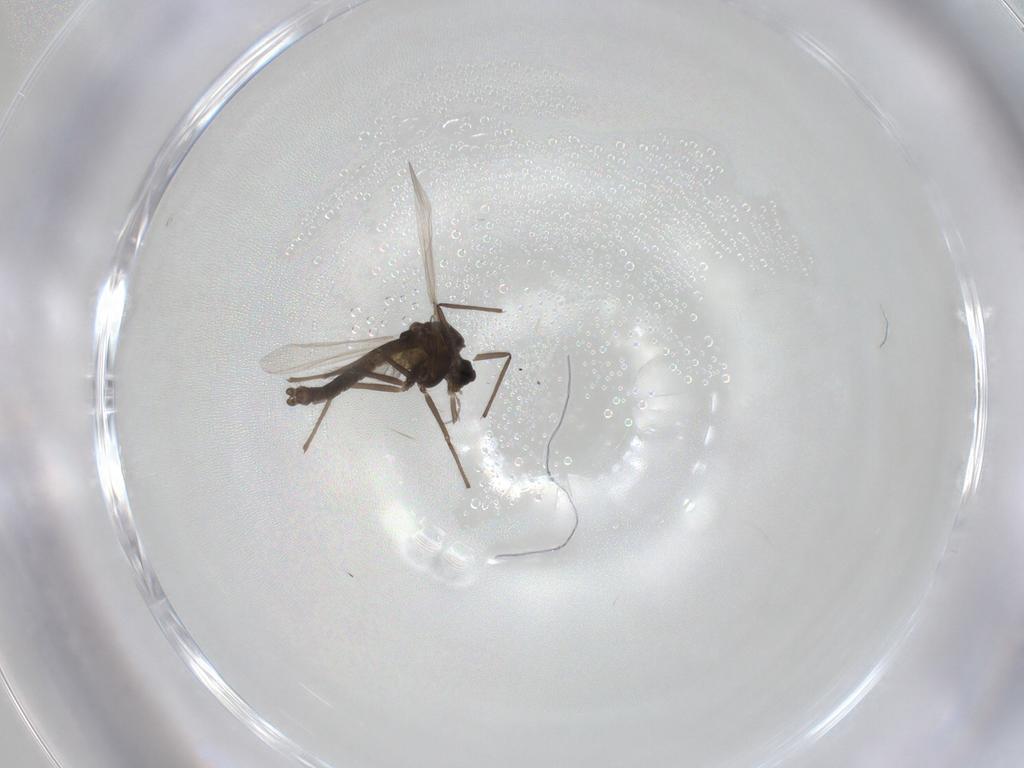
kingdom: Animalia
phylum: Arthropoda
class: Insecta
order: Diptera
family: Chironomidae
